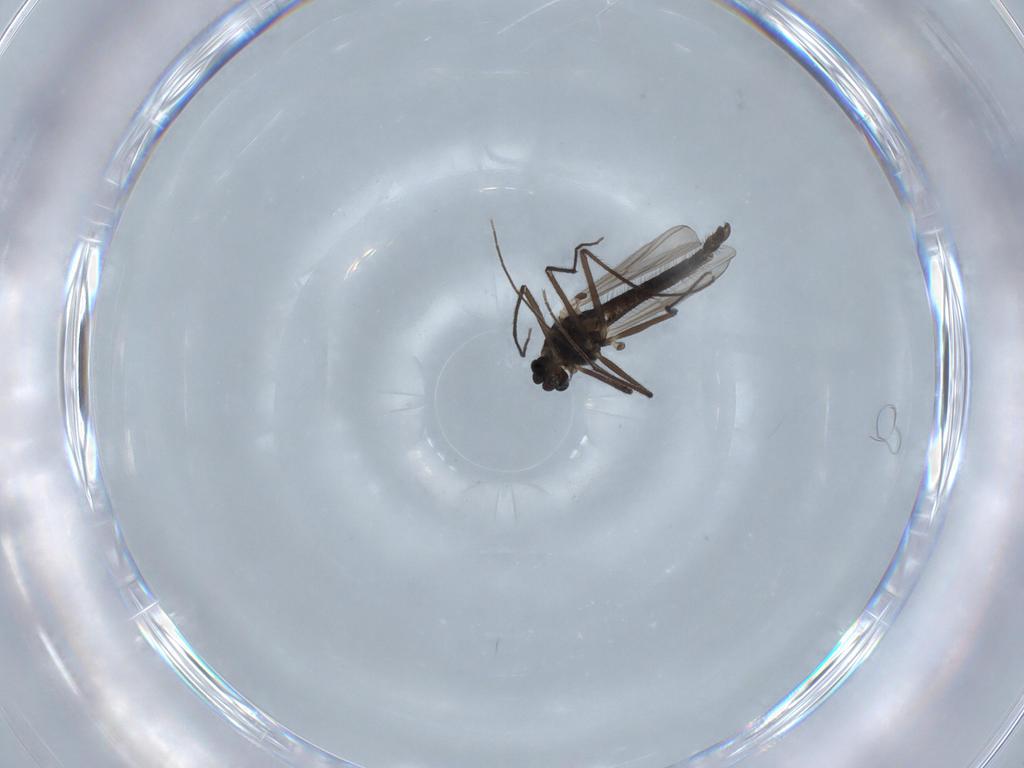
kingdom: Animalia
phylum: Arthropoda
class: Insecta
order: Diptera
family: Chironomidae
